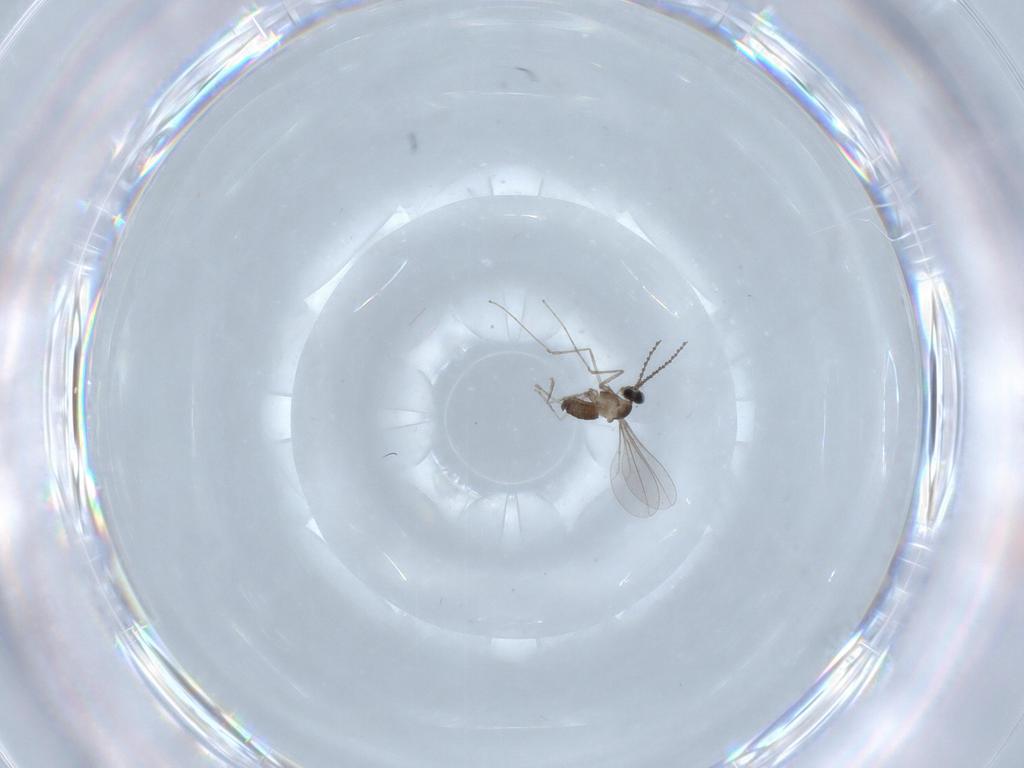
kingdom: Animalia
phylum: Arthropoda
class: Insecta
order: Diptera
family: Cecidomyiidae
